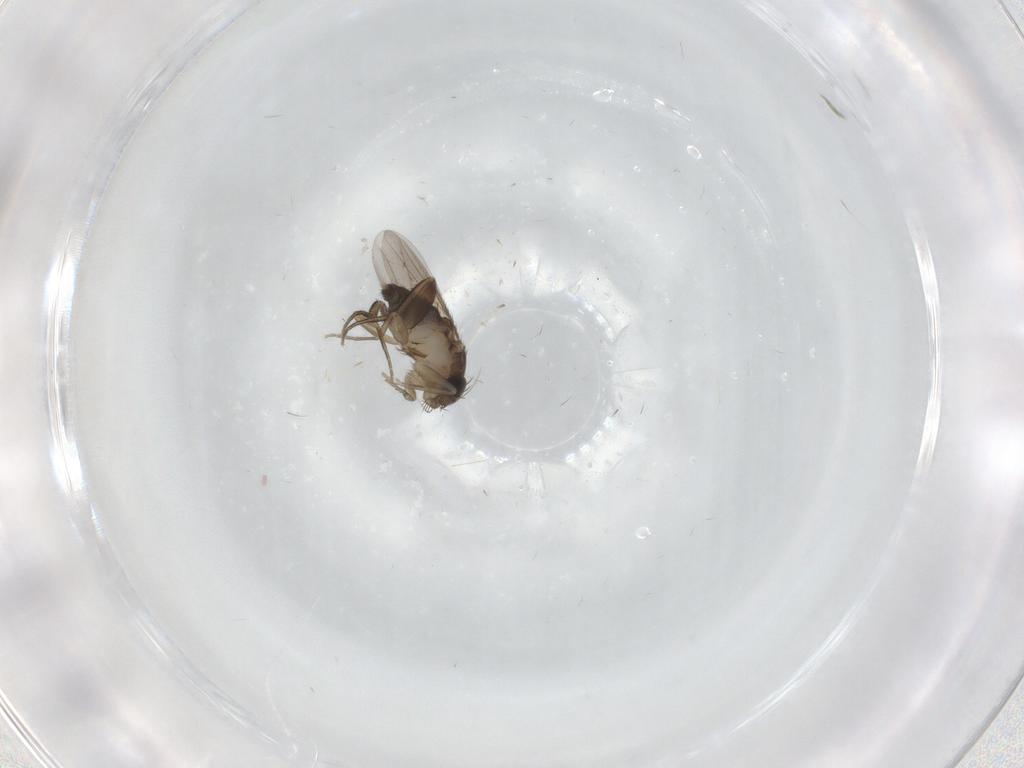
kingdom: Animalia
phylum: Arthropoda
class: Insecta
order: Diptera
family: Phoridae
